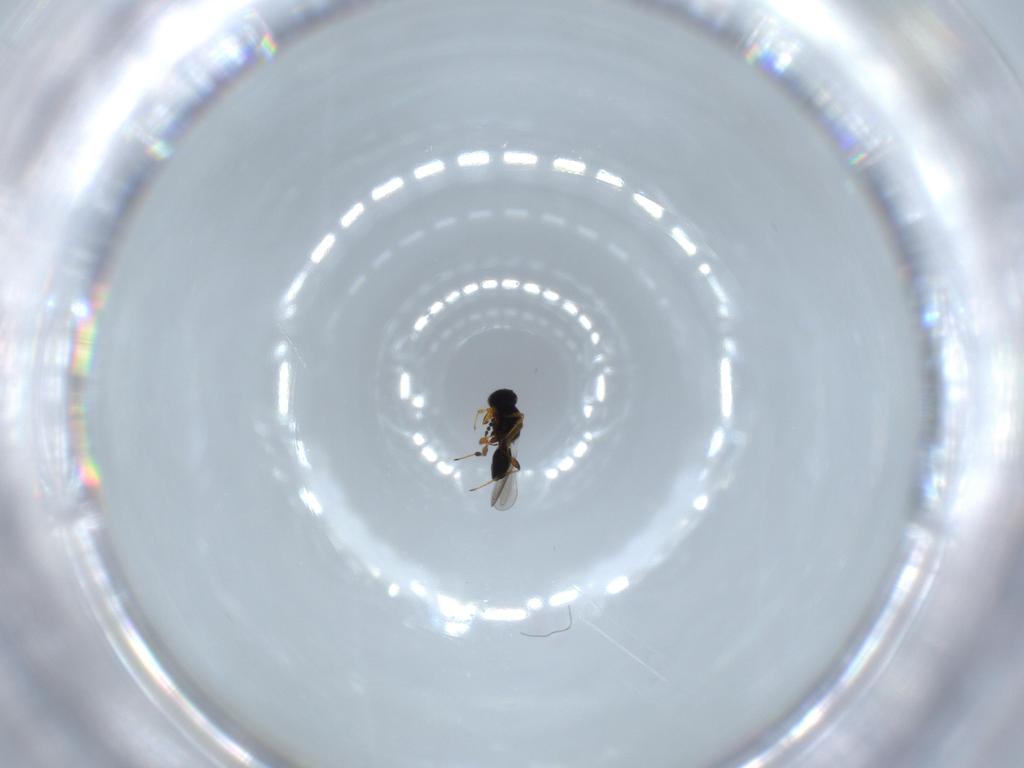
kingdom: Animalia
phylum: Arthropoda
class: Insecta
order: Hymenoptera
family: Platygastridae
